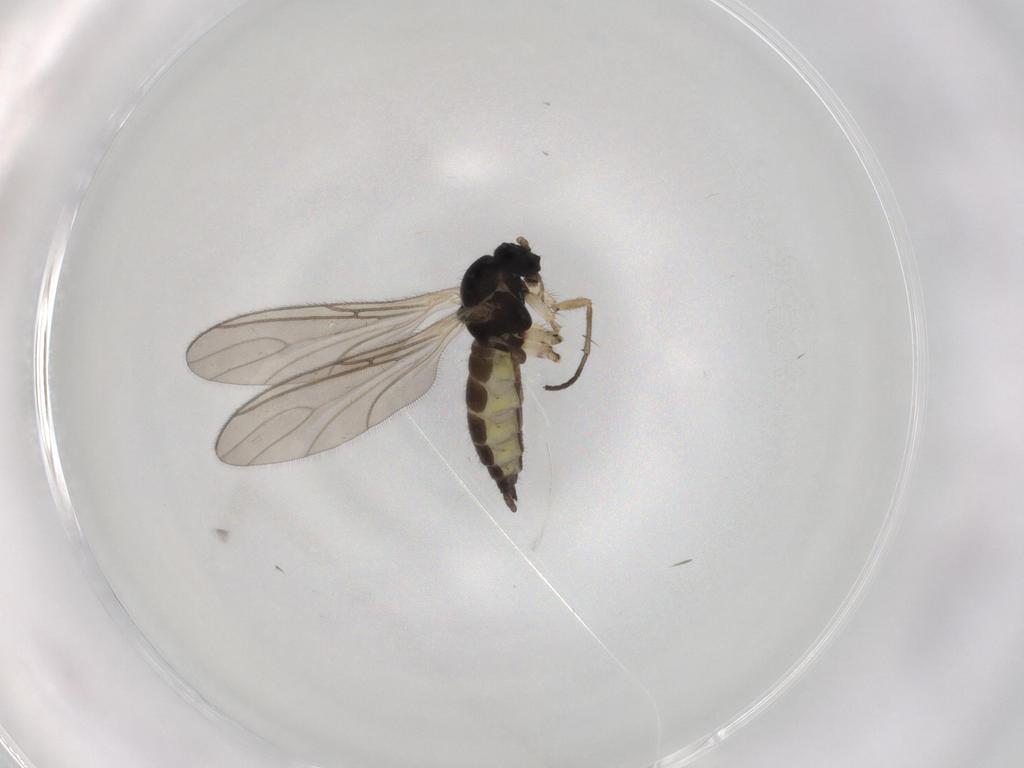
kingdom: Animalia
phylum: Arthropoda
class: Insecta
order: Diptera
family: Sciaridae
